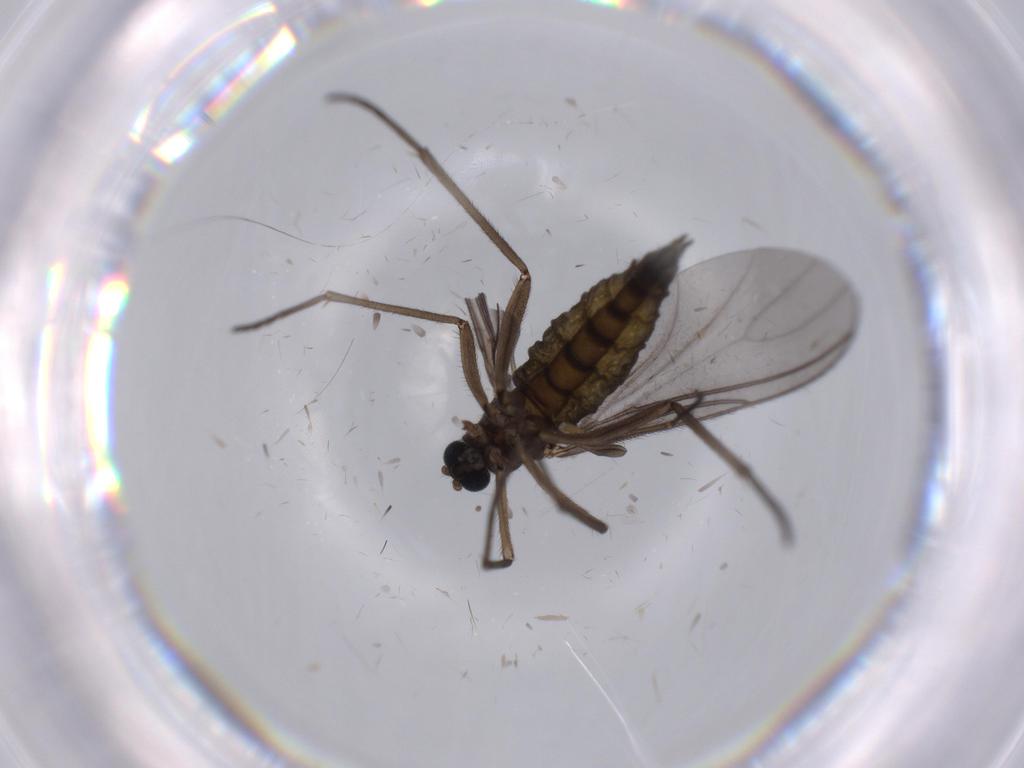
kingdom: Animalia
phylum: Arthropoda
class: Insecta
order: Diptera
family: Sciaridae
